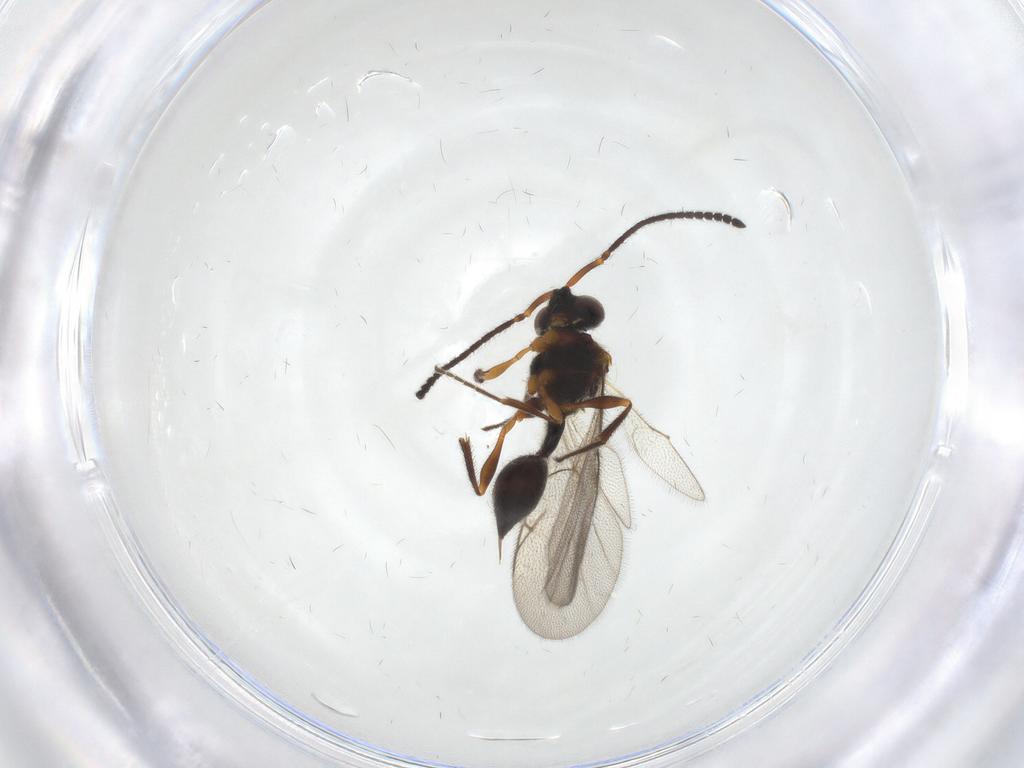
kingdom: Animalia
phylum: Arthropoda
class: Insecta
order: Hymenoptera
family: Diapriidae
